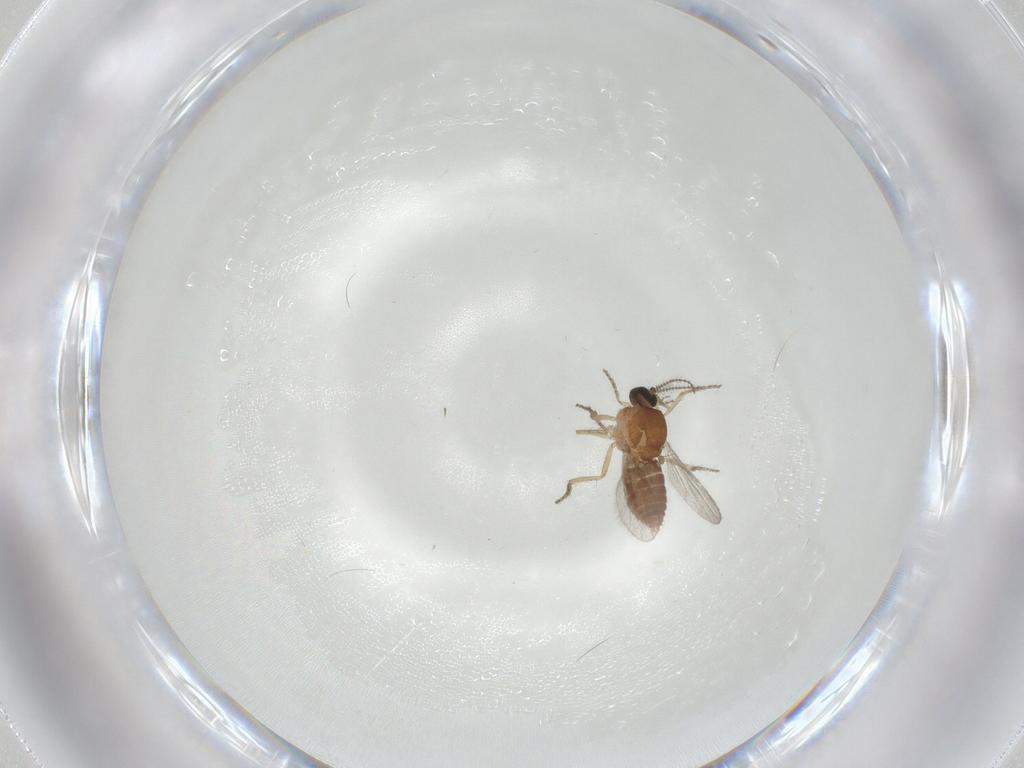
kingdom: Animalia
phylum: Arthropoda
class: Insecta
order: Diptera
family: Ceratopogonidae
